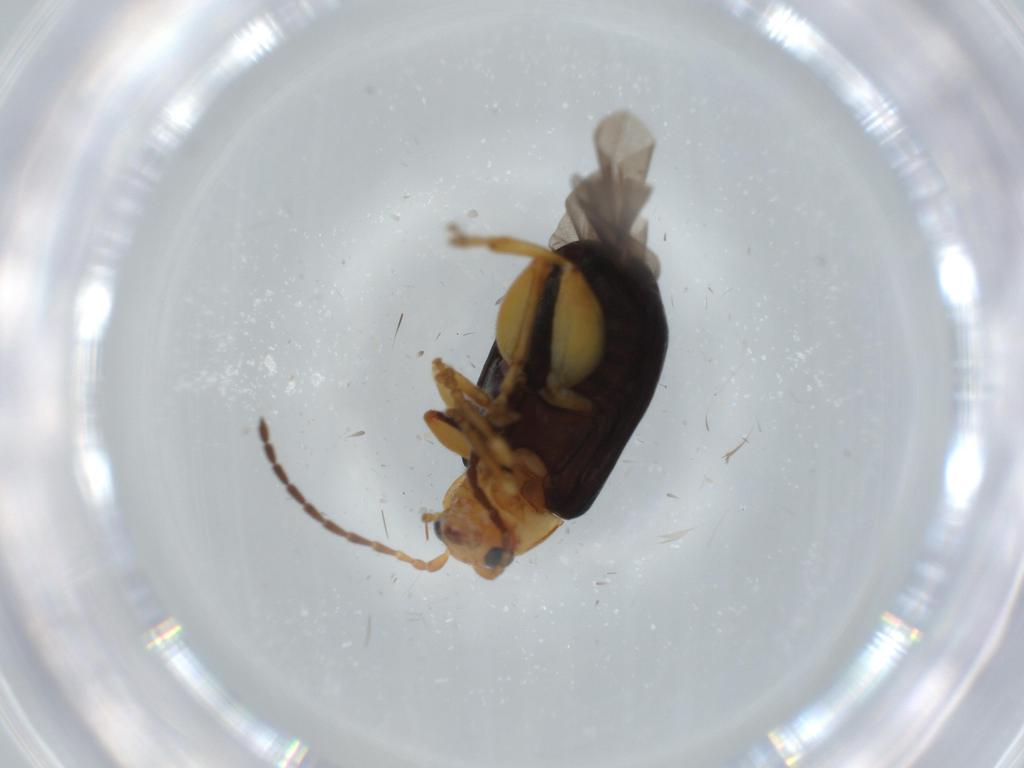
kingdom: Animalia
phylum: Arthropoda
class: Insecta
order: Coleoptera
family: Chrysomelidae
